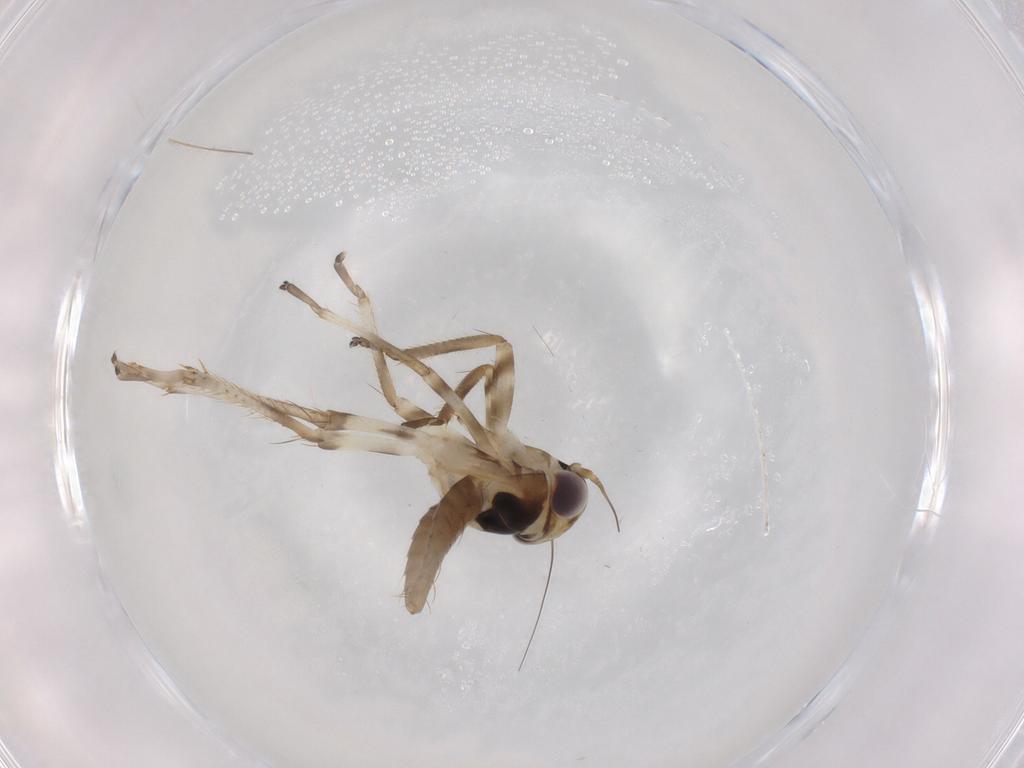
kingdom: Animalia
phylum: Arthropoda
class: Insecta
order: Hemiptera
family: Cicadellidae
